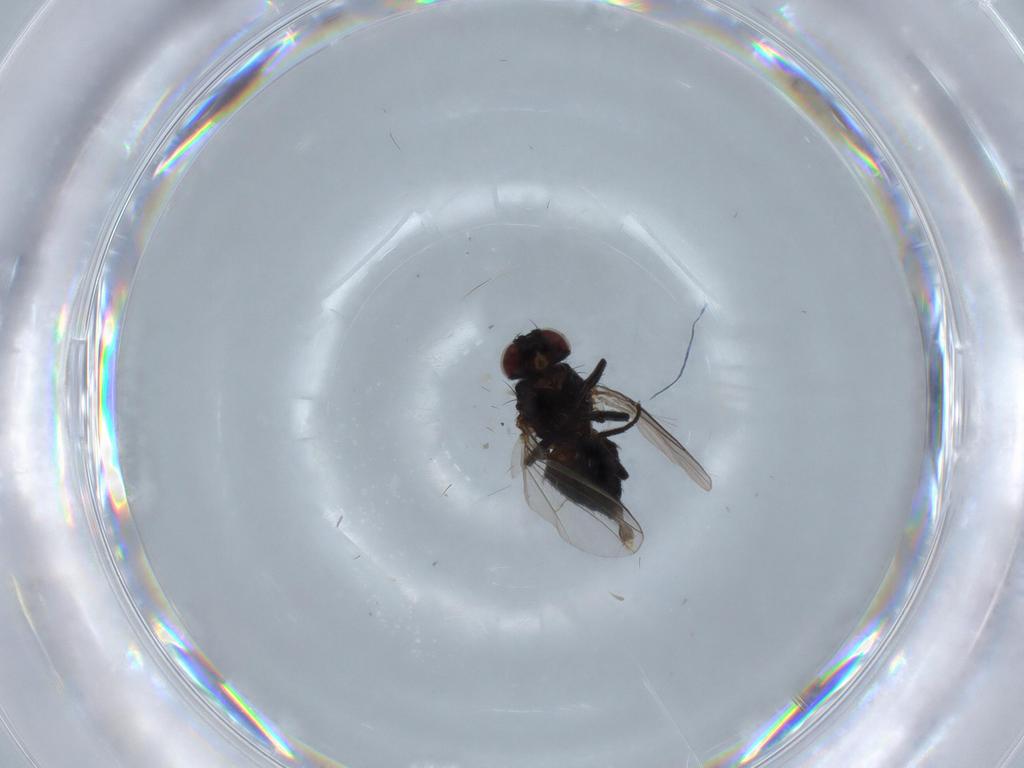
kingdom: Animalia
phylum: Arthropoda
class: Insecta
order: Diptera
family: Agromyzidae
